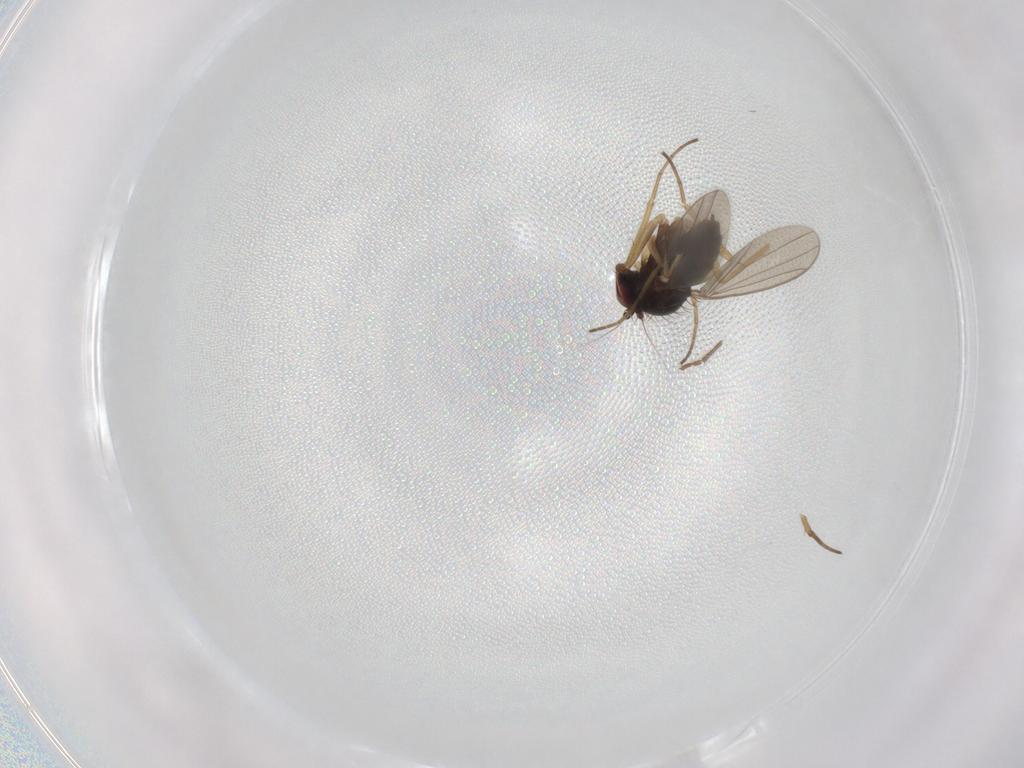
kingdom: Animalia
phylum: Arthropoda
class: Insecta
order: Diptera
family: Dolichopodidae
